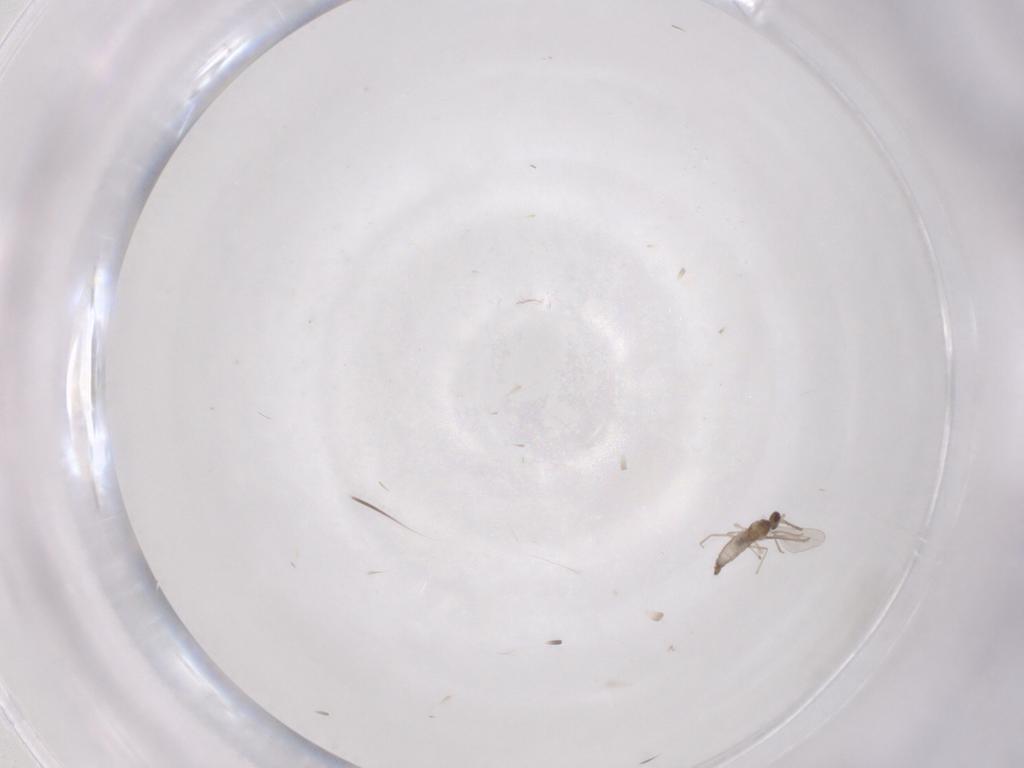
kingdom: Animalia
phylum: Arthropoda
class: Insecta
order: Diptera
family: Cecidomyiidae
